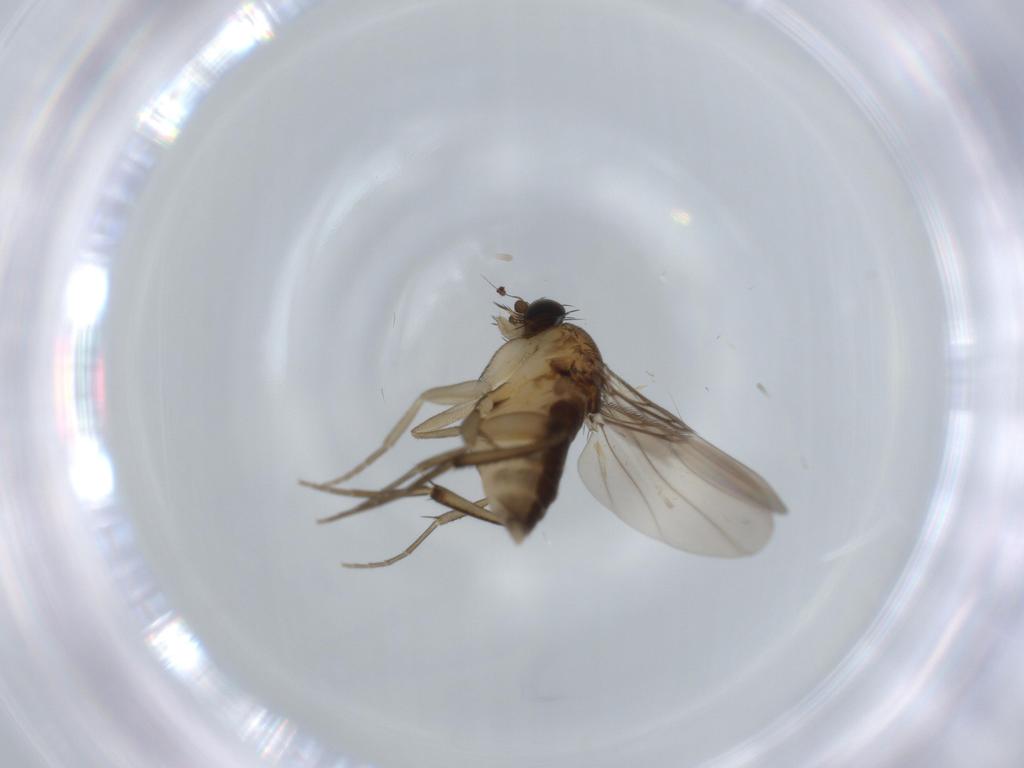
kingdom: Animalia
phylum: Arthropoda
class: Insecta
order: Diptera
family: Phoridae
